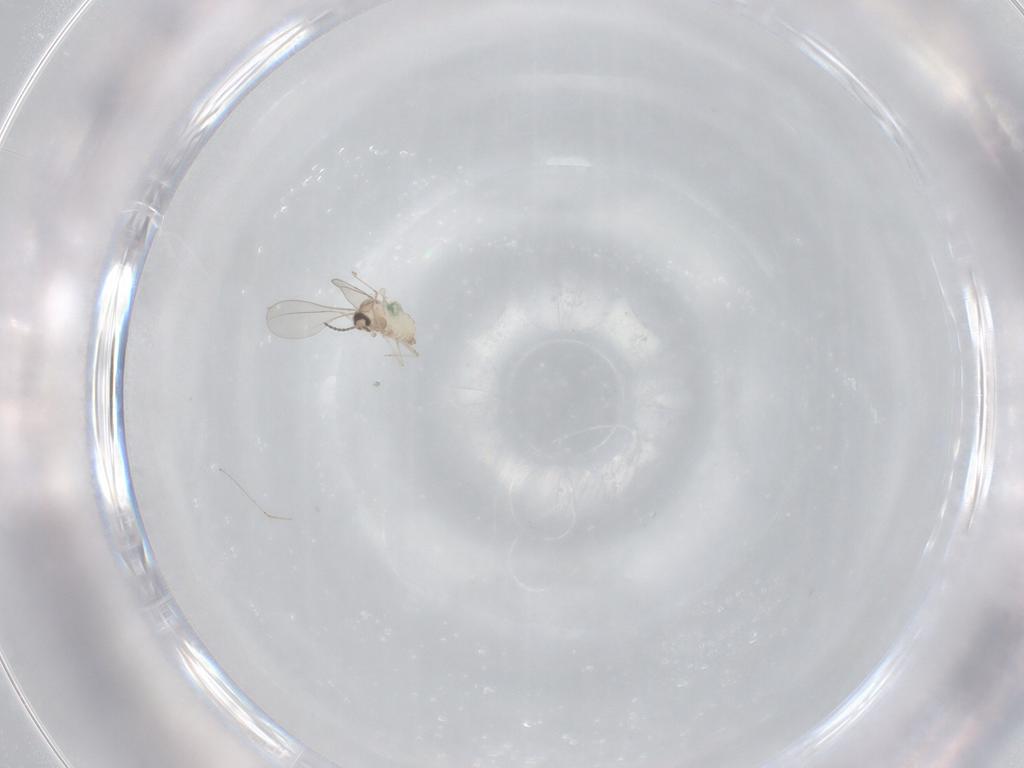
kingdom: Animalia
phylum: Arthropoda
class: Insecta
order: Diptera
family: Cecidomyiidae
